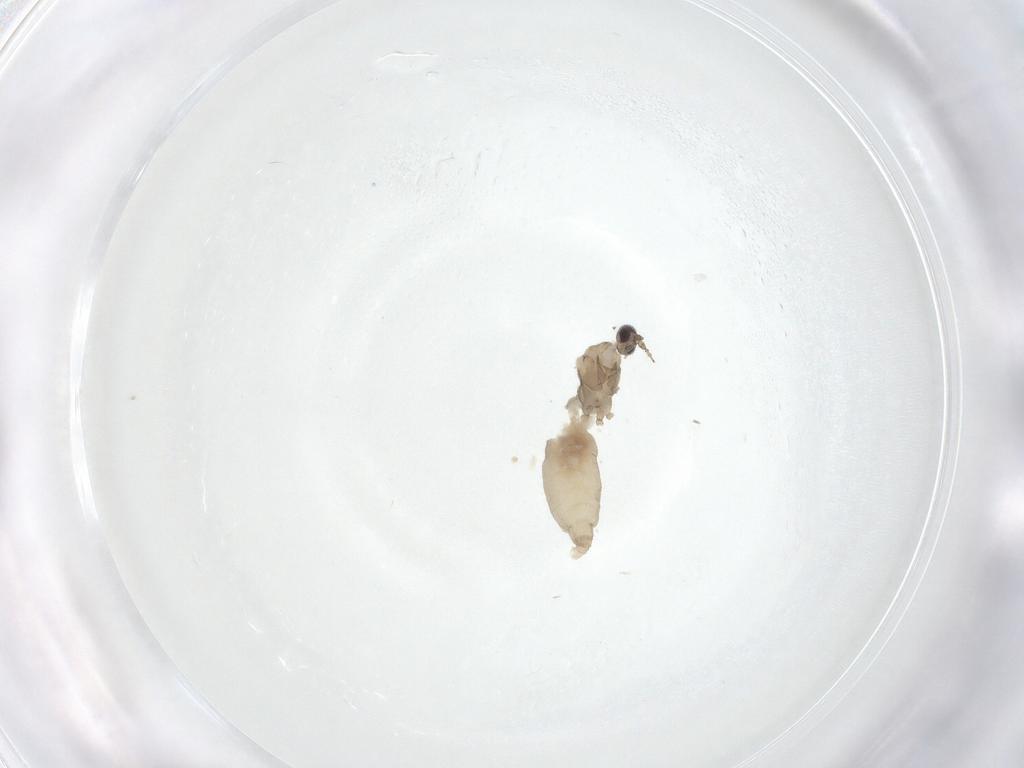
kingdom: Animalia
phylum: Arthropoda
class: Insecta
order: Diptera
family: Cecidomyiidae
